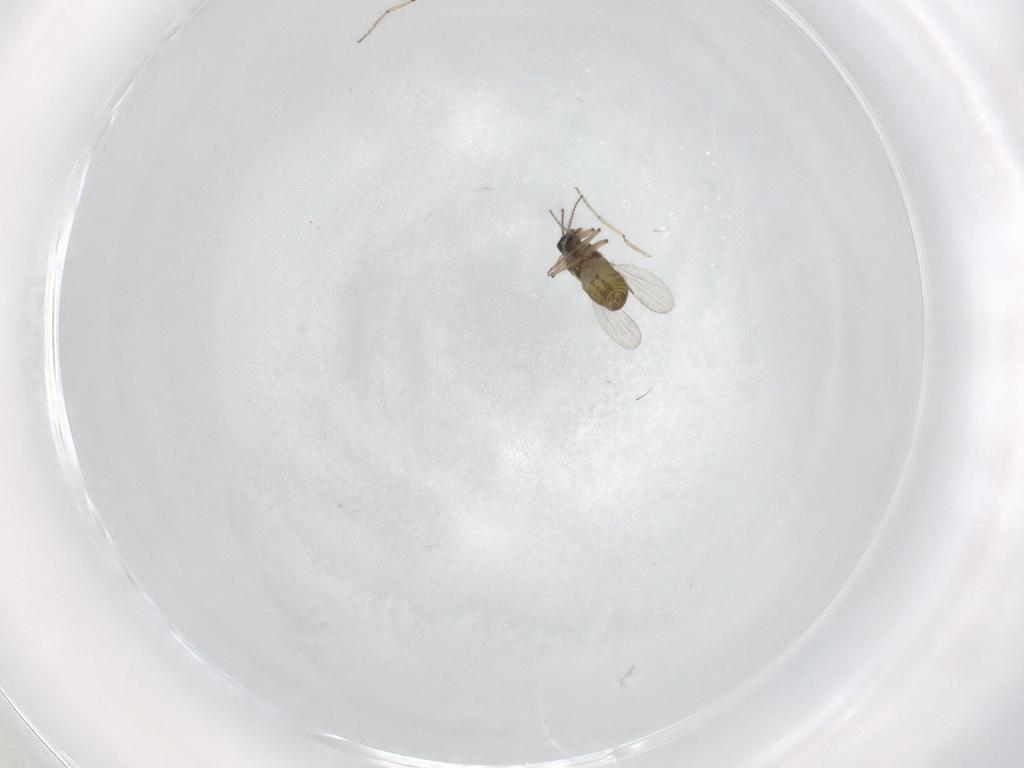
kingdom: Animalia
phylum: Arthropoda
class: Insecta
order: Diptera
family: Ceratopogonidae
